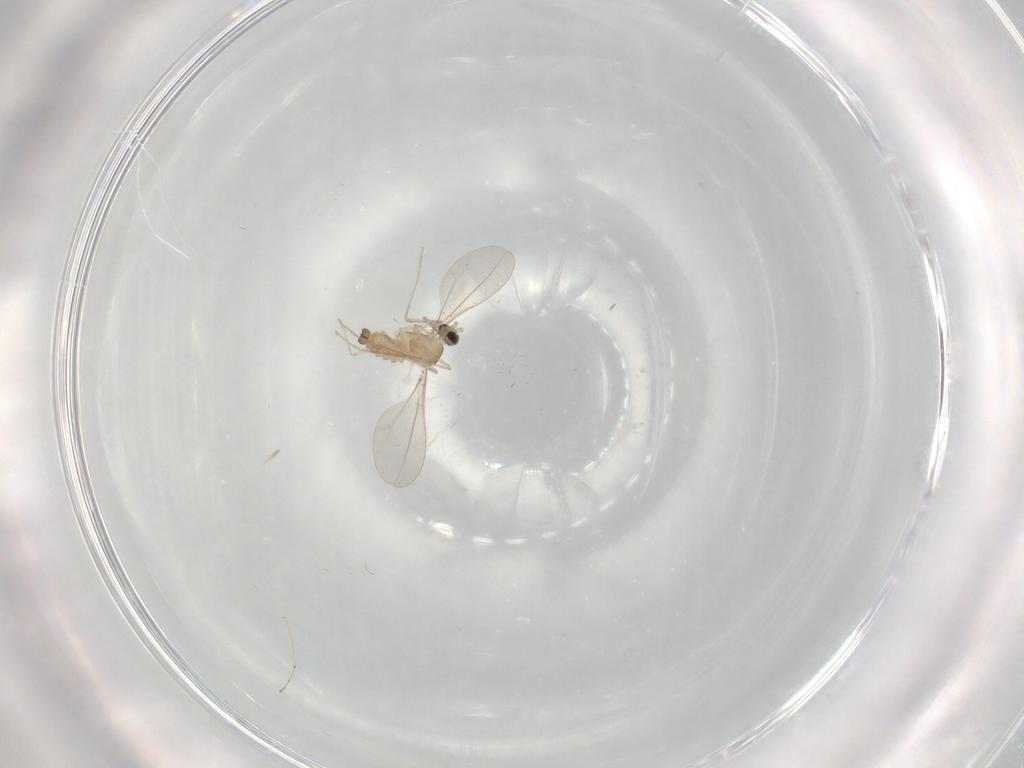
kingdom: Animalia
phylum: Arthropoda
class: Insecta
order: Diptera
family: Cecidomyiidae
